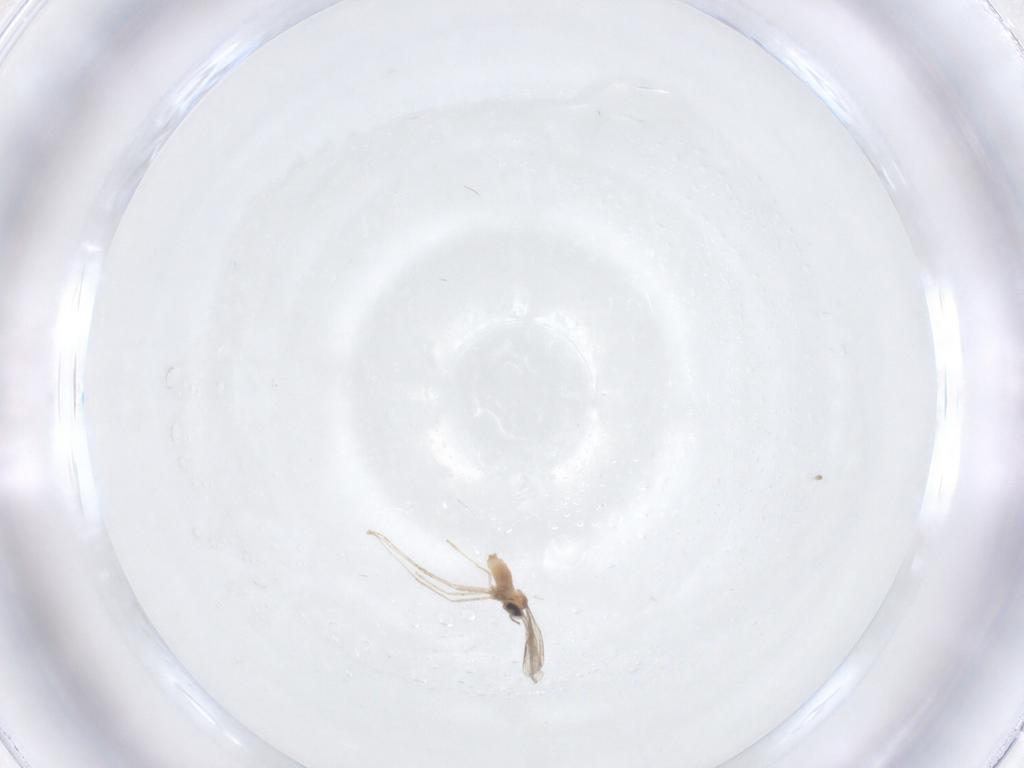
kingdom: Animalia
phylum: Arthropoda
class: Insecta
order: Diptera
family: Cecidomyiidae
